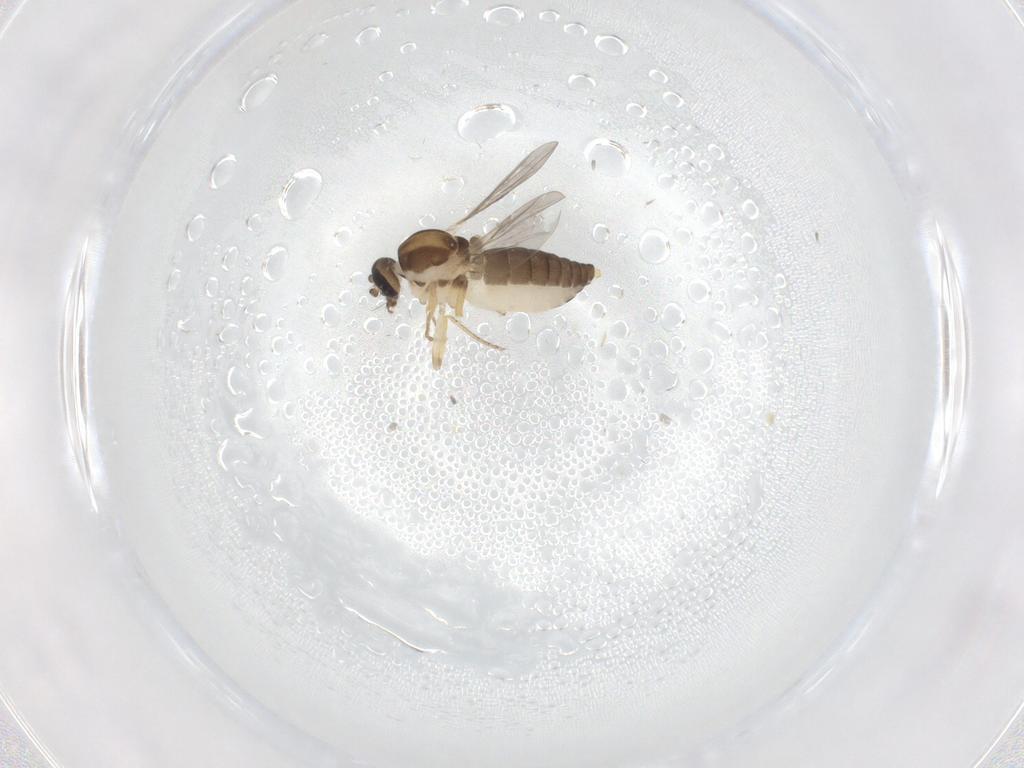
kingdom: Animalia
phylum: Arthropoda
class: Insecta
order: Diptera
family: Ceratopogonidae
